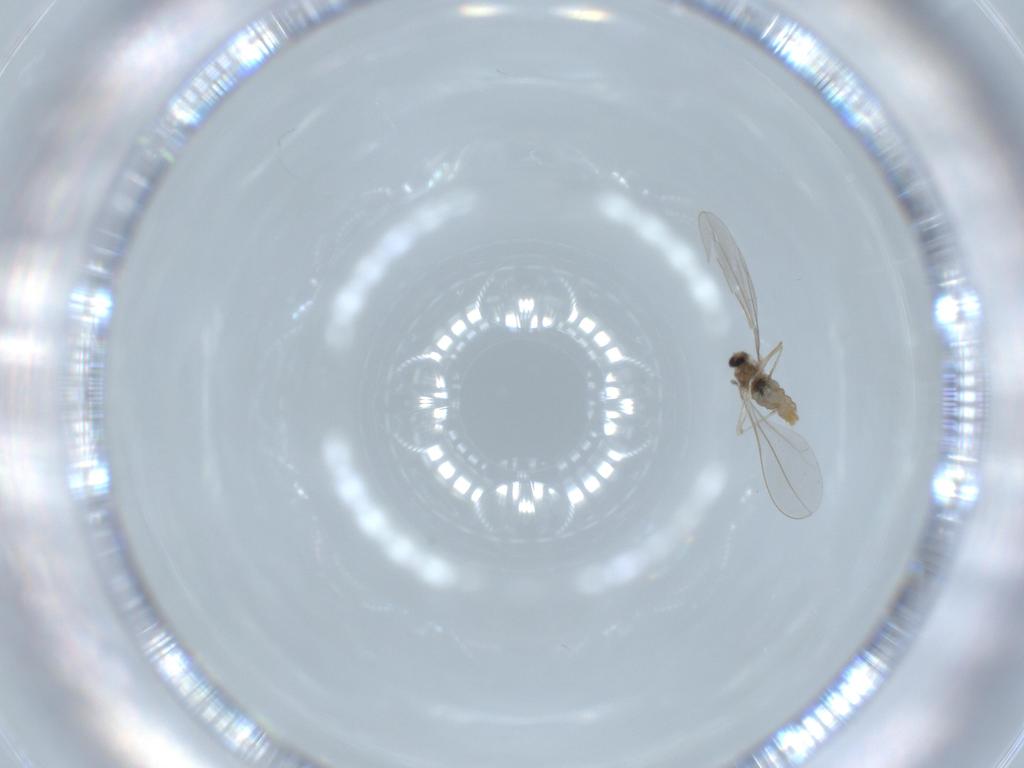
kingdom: Animalia
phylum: Arthropoda
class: Insecta
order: Diptera
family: Cecidomyiidae
